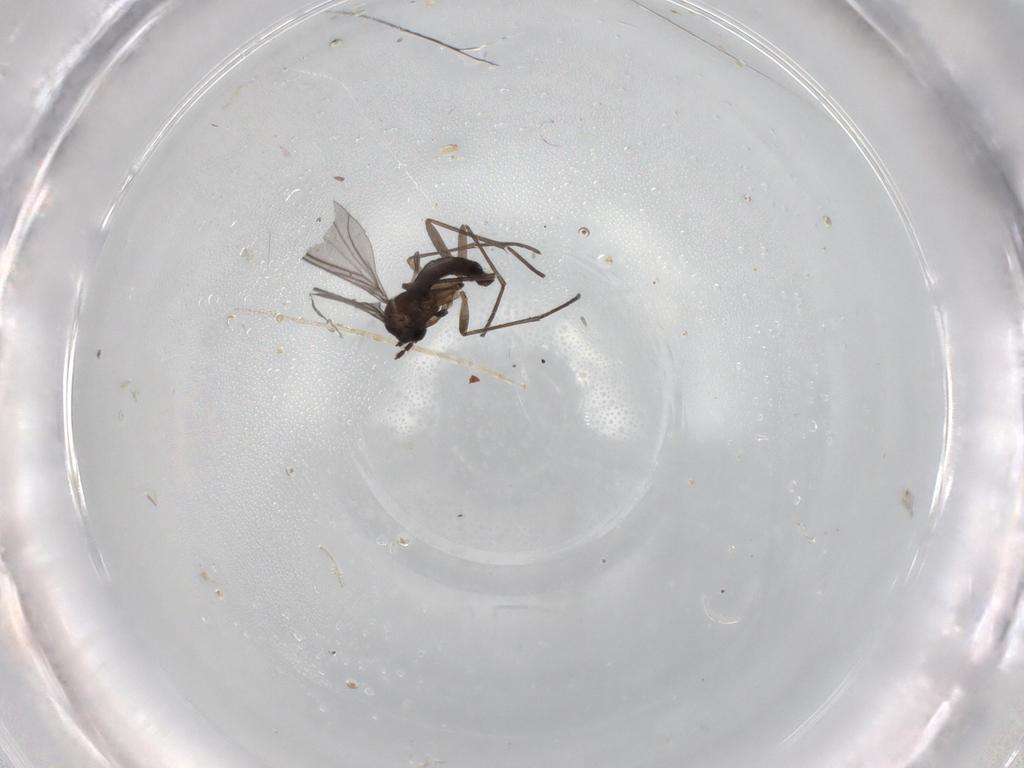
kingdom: Animalia
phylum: Arthropoda
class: Insecta
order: Diptera
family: Sciaridae
